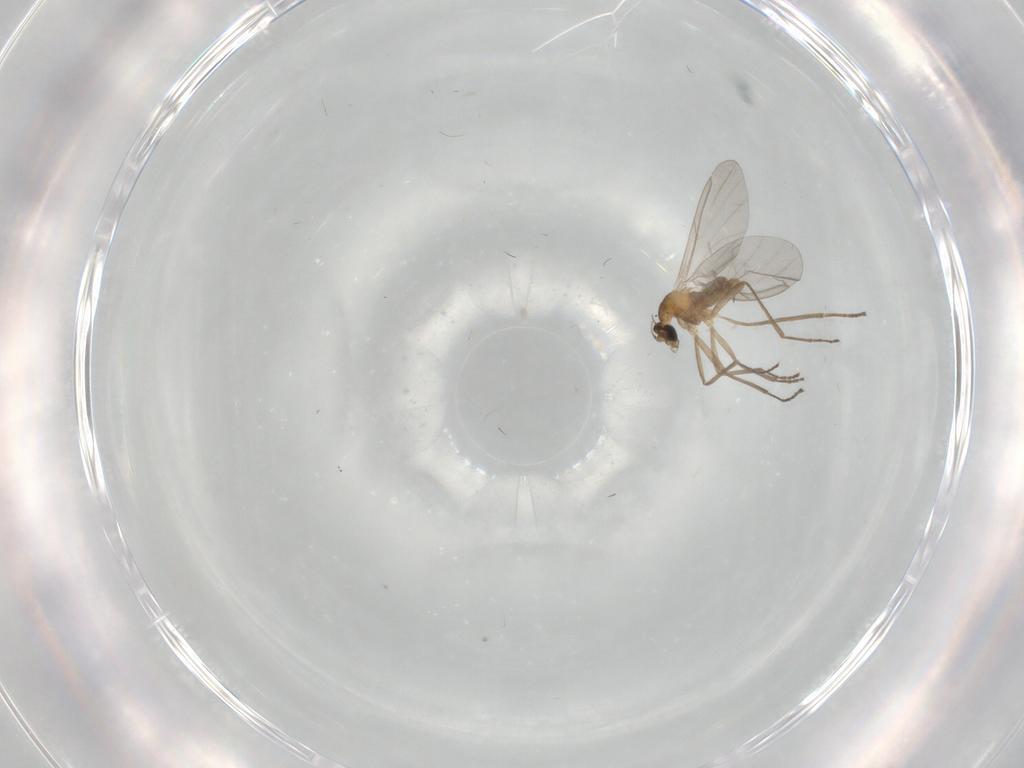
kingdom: Animalia
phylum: Arthropoda
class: Insecta
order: Diptera
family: Cecidomyiidae
